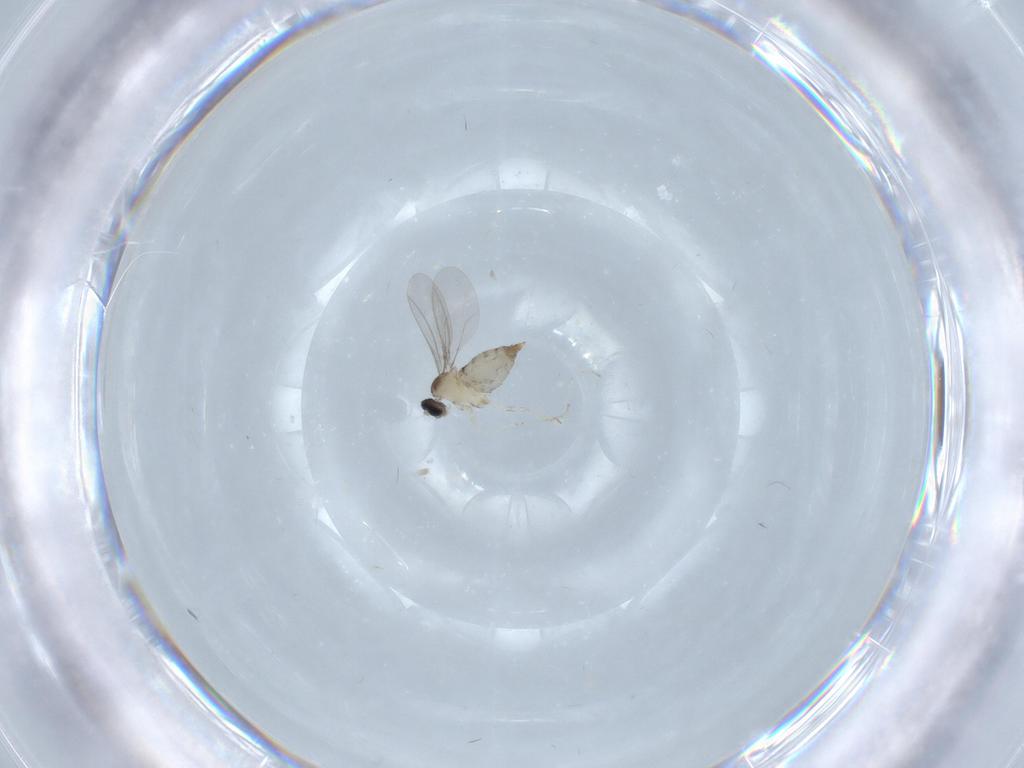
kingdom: Animalia
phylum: Arthropoda
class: Insecta
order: Diptera
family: Cecidomyiidae
